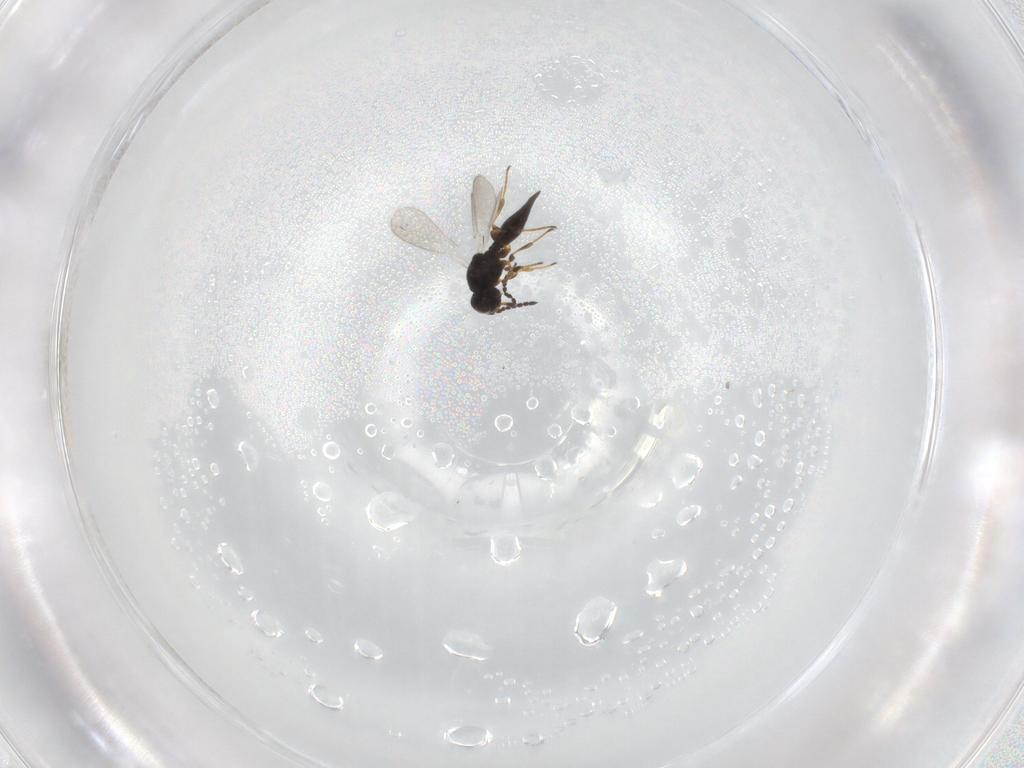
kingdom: Animalia
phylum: Arthropoda
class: Insecta
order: Hymenoptera
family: Platygastridae
